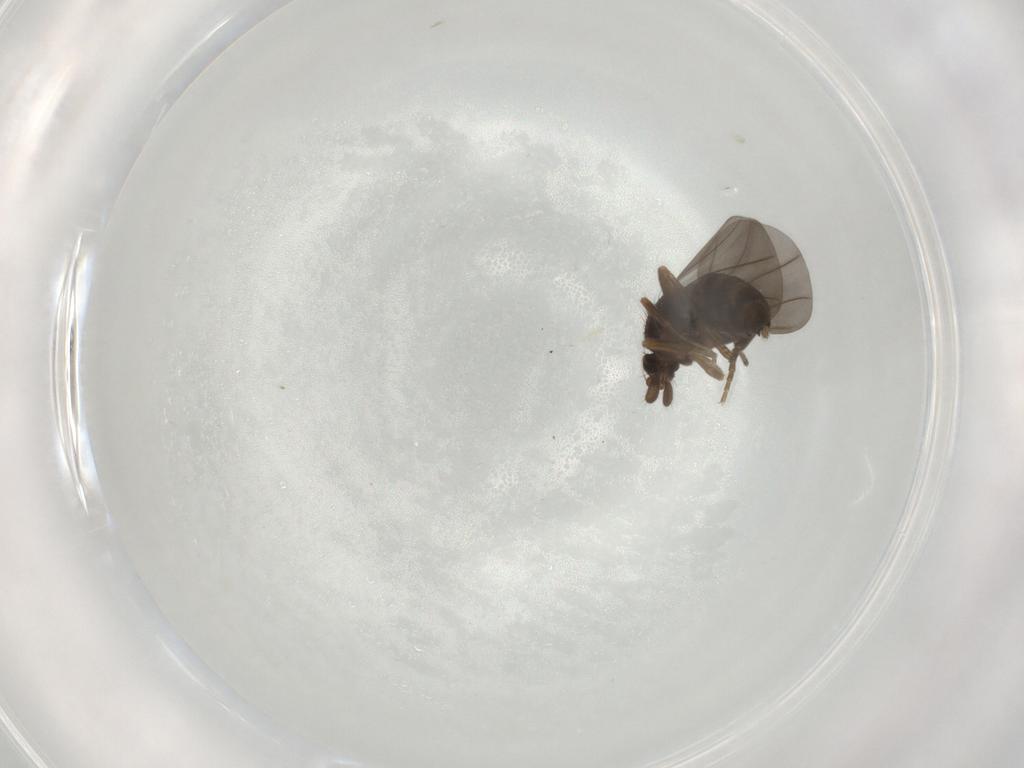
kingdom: Animalia
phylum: Arthropoda
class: Insecta
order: Diptera
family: Phoridae
